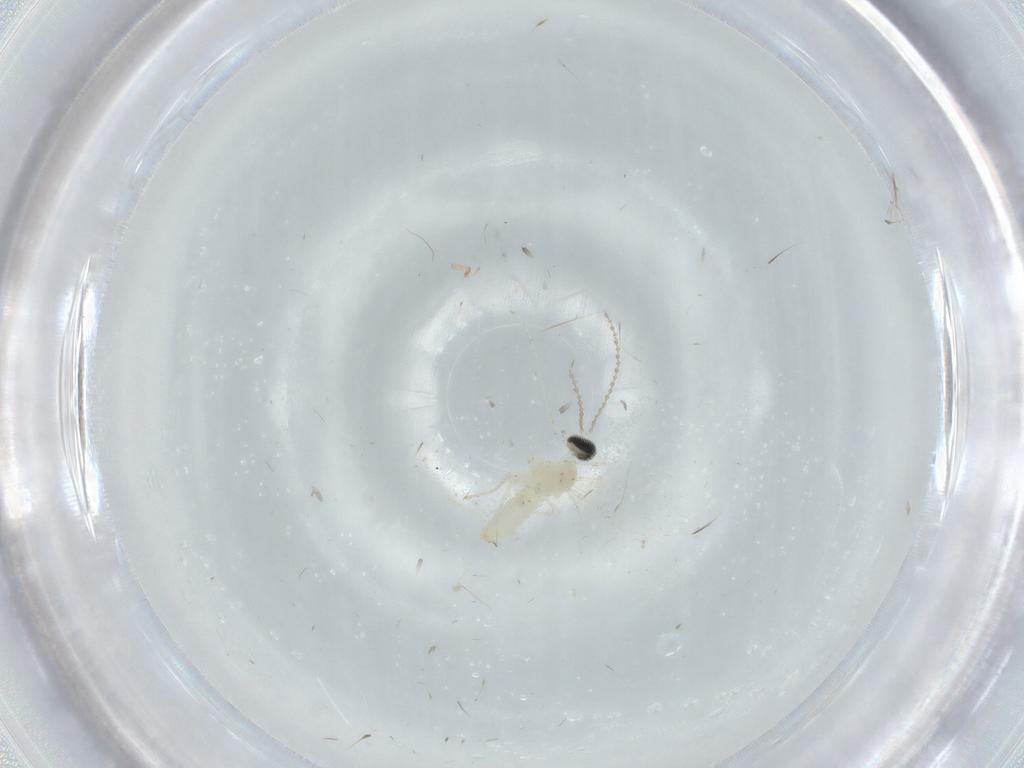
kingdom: Animalia
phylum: Arthropoda
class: Insecta
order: Diptera
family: Cecidomyiidae
